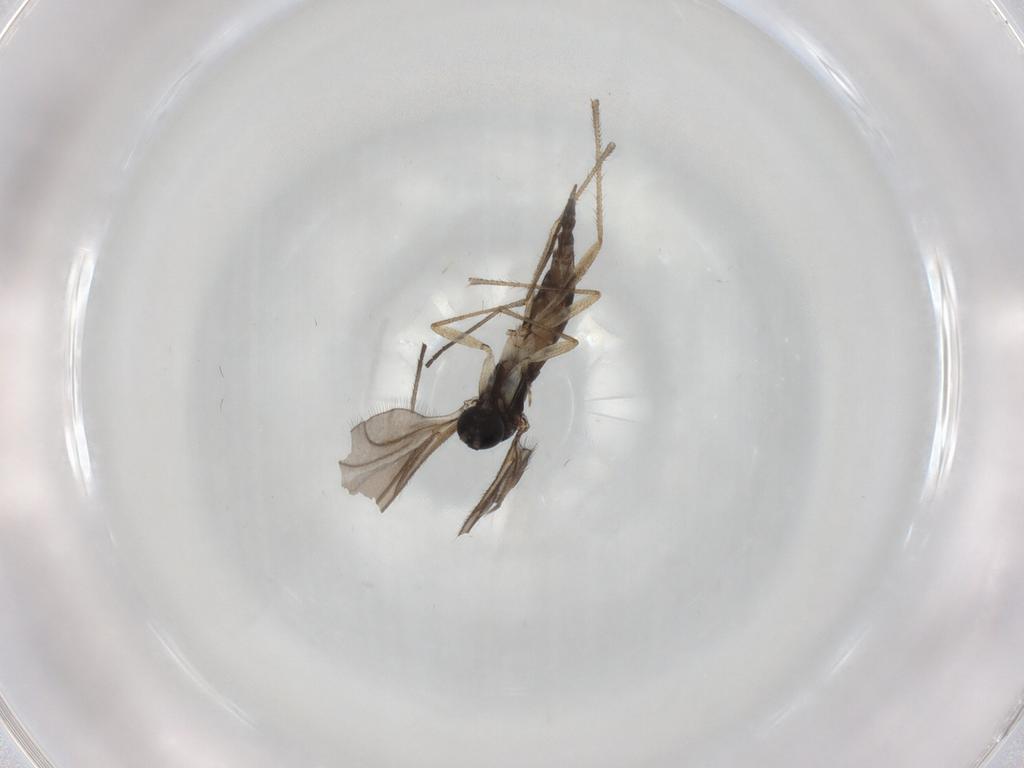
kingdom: Animalia
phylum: Arthropoda
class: Insecta
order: Diptera
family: Sciaridae
